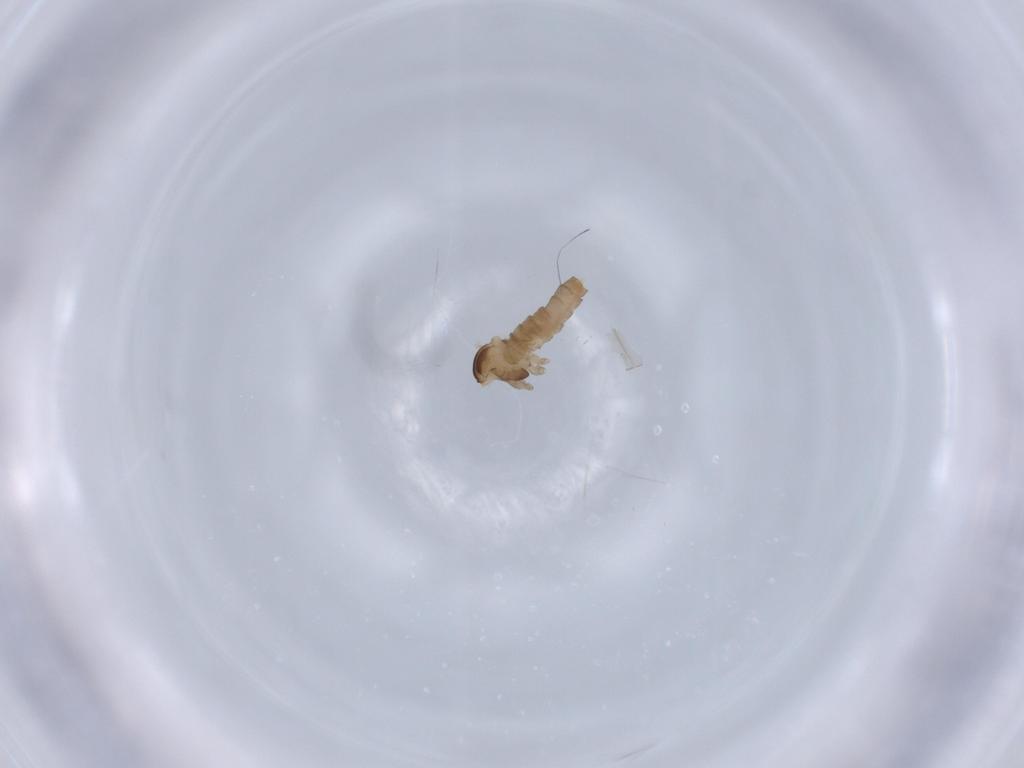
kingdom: Animalia
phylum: Arthropoda
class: Insecta
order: Diptera
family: Cecidomyiidae
